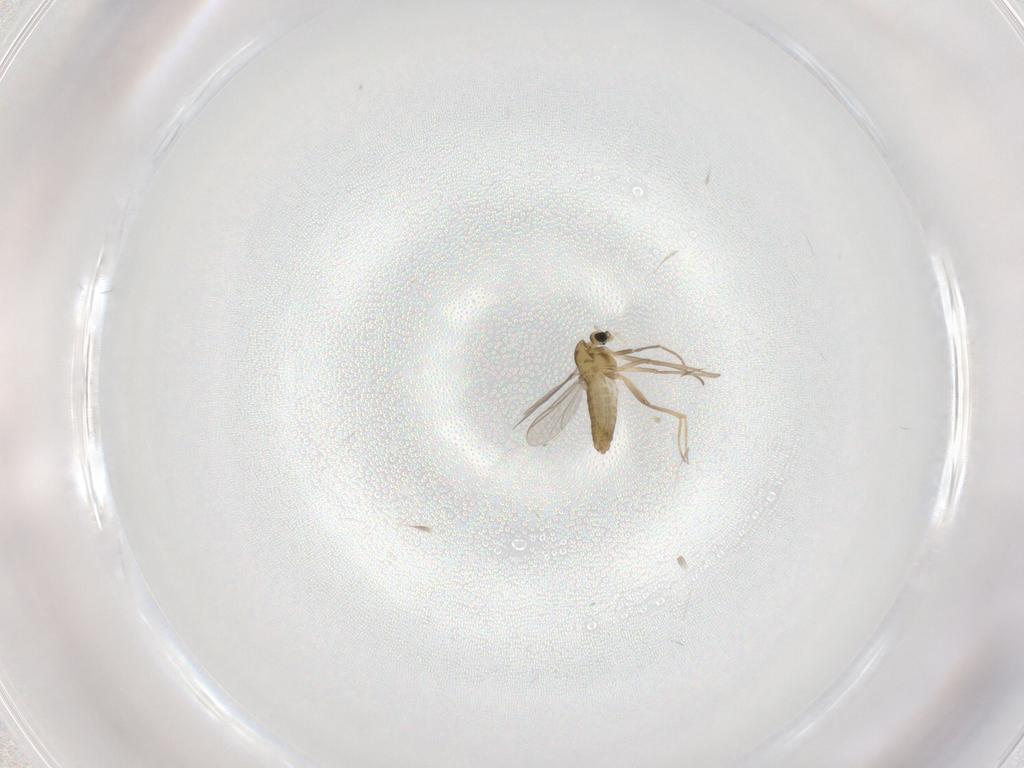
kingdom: Animalia
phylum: Arthropoda
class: Insecta
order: Diptera
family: Chironomidae
